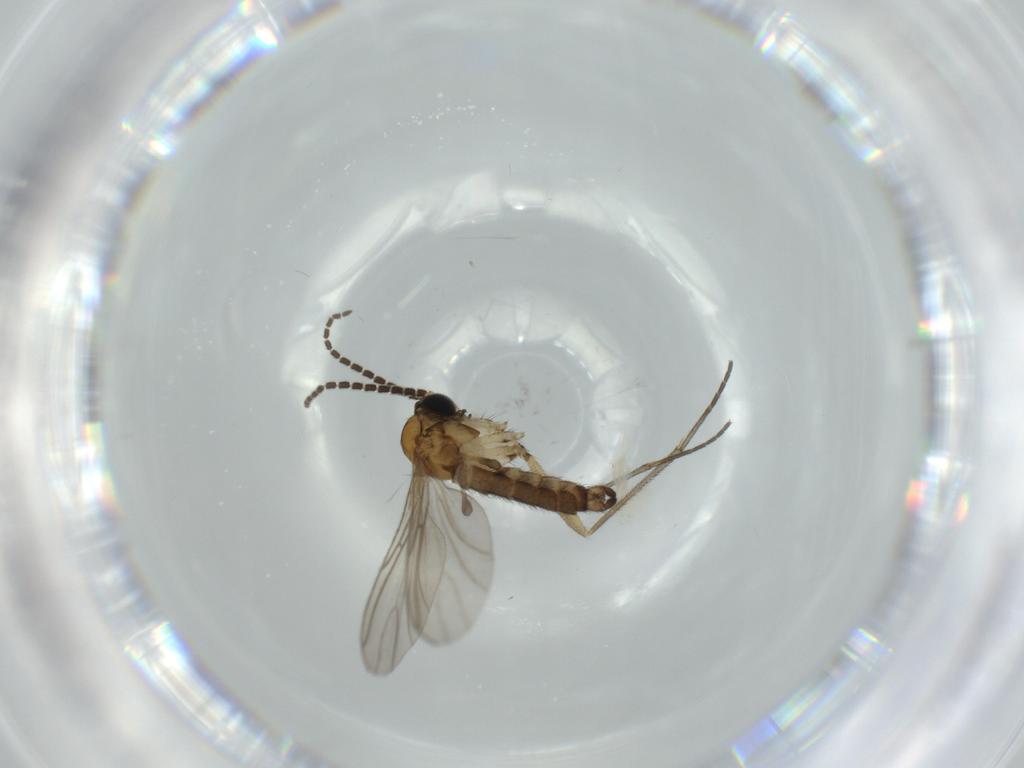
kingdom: Animalia
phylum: Arthropoda
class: Insecta
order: Diptera
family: Sciaridae
